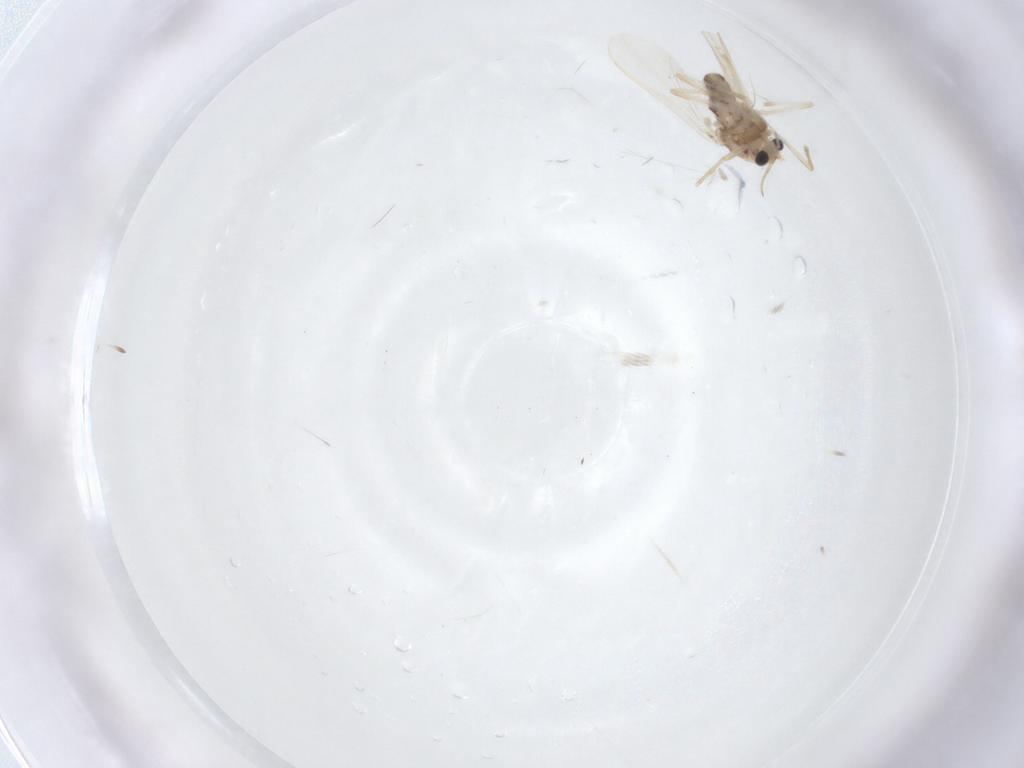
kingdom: Animalia
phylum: Arthropoda
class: Insecta
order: Diptera
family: Chironomidae
